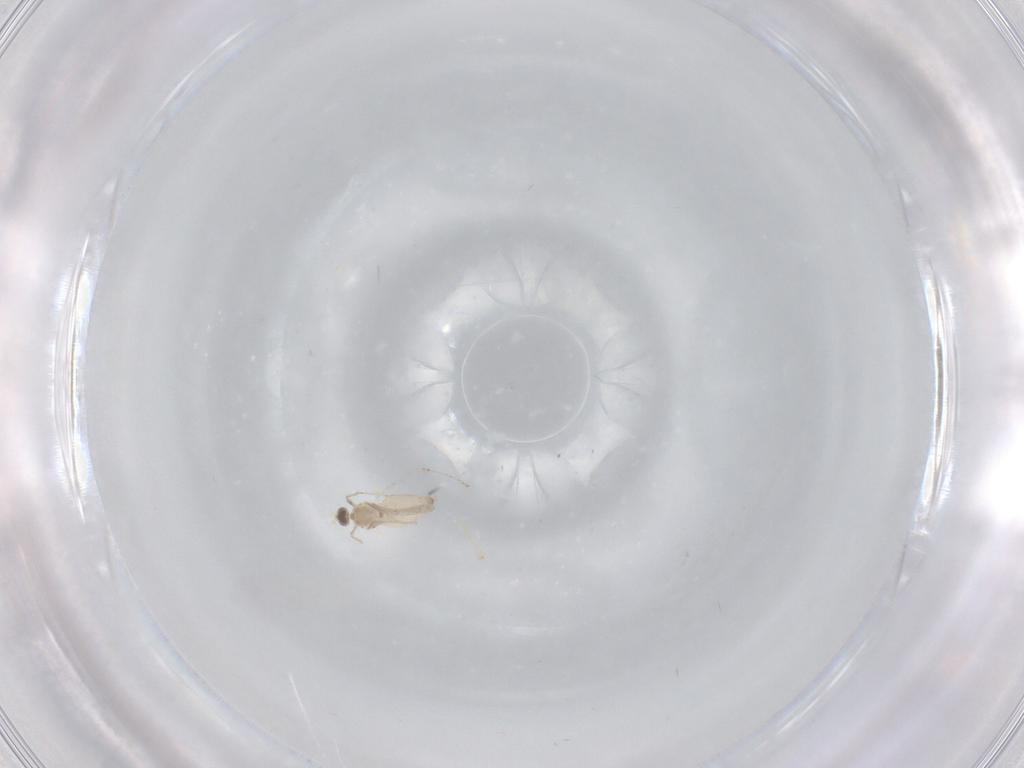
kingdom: Animalia
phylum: Arthropoda
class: Insecta
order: Diptera
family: Cecidomyiidae
